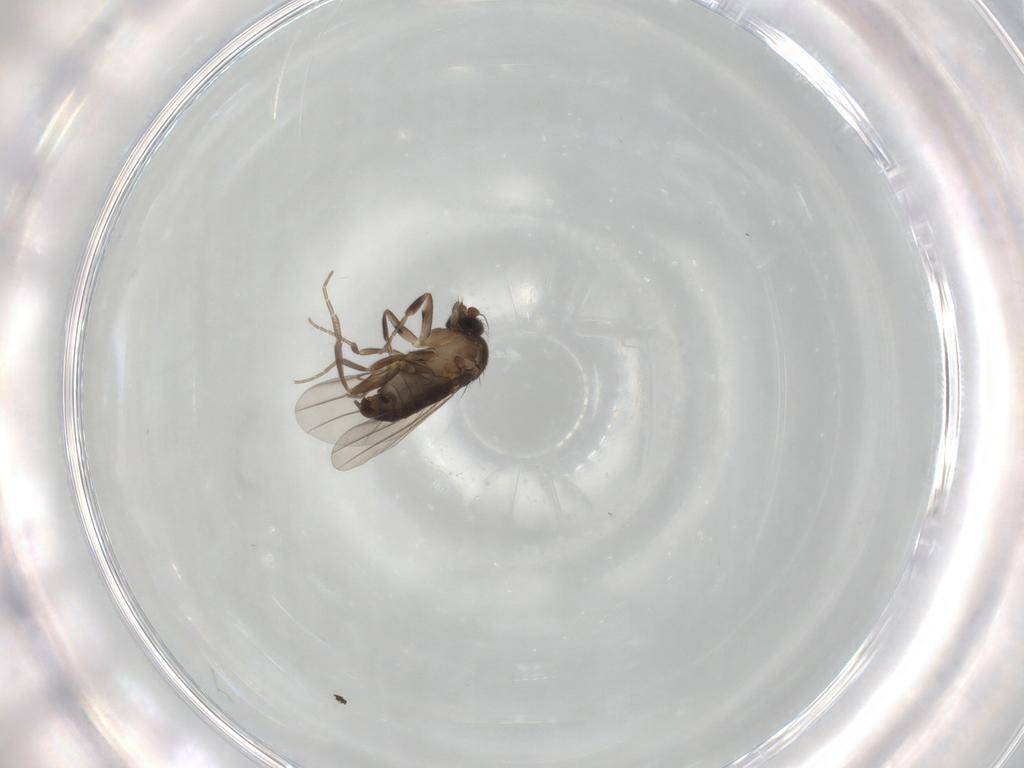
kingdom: Animalia
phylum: Arthropoda
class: Insecta
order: Diptera
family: Phoridae
